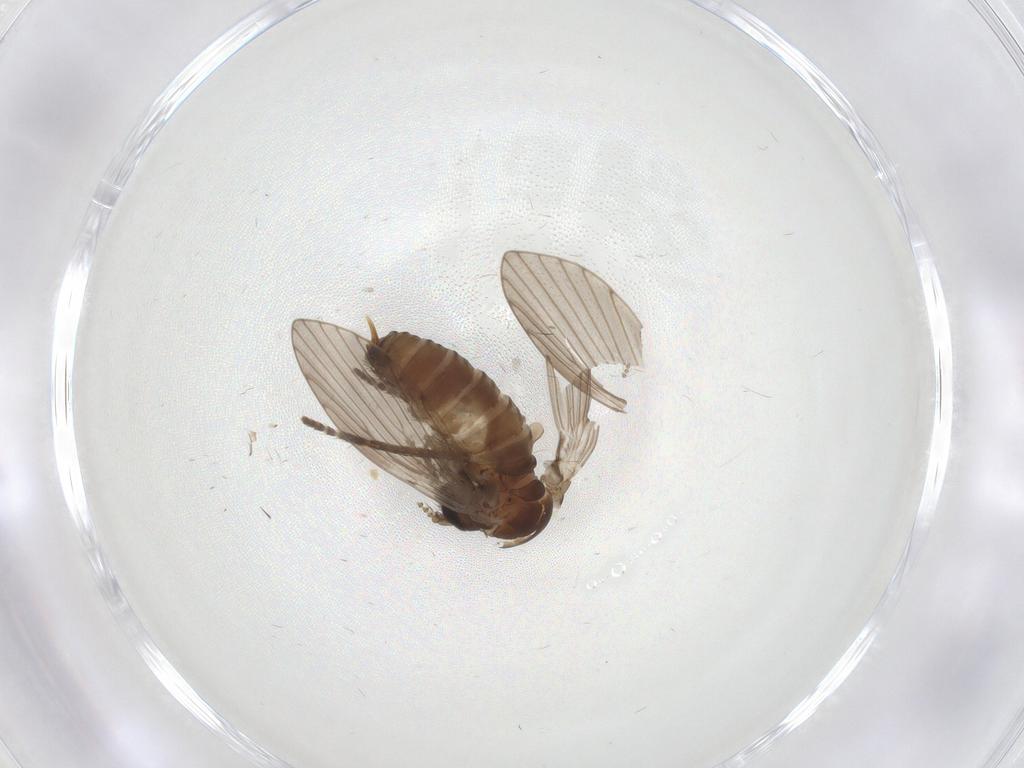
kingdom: Animalia
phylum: Arthropoda
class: Insecta
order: Diptera
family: Psychodidae
